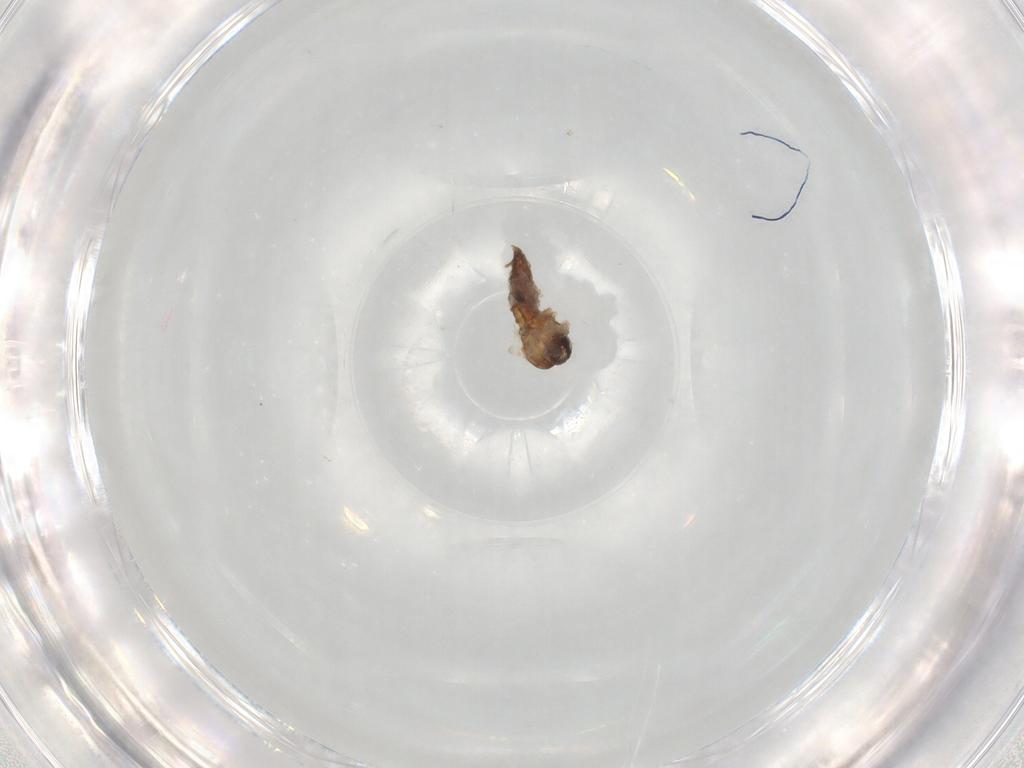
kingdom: Animalia
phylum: Arthropoda
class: Insecta
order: Diptera
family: Psychodidae
